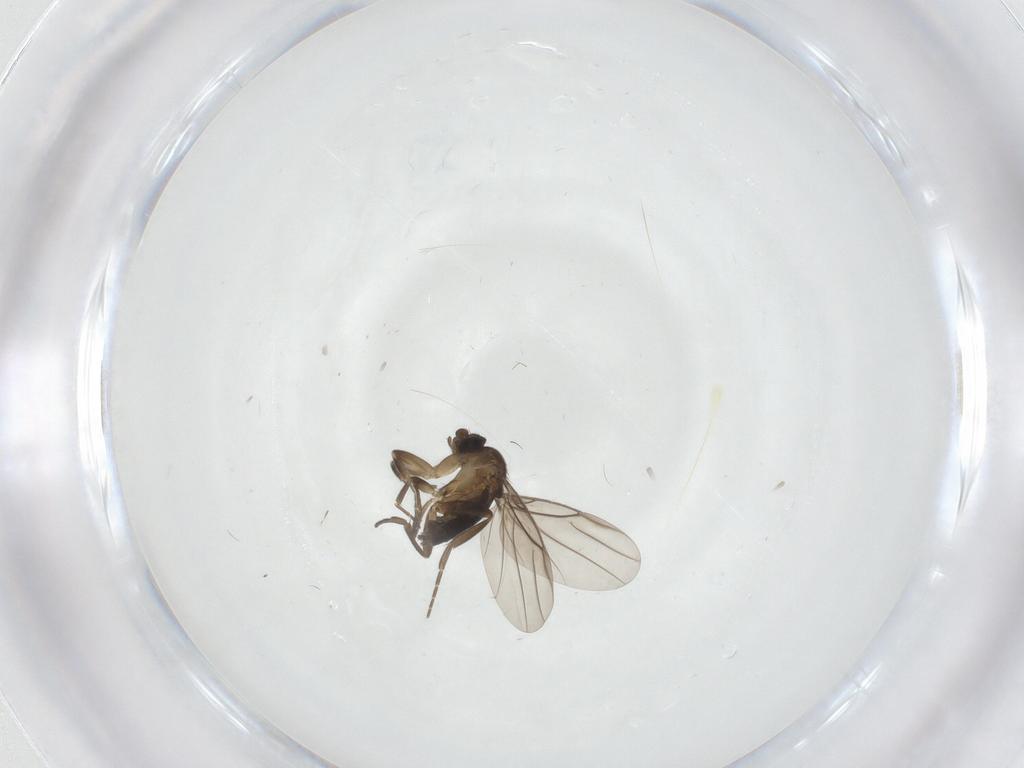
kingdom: Animalia
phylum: Arthropoda
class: Insecta
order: Diptera
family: Phoridae
